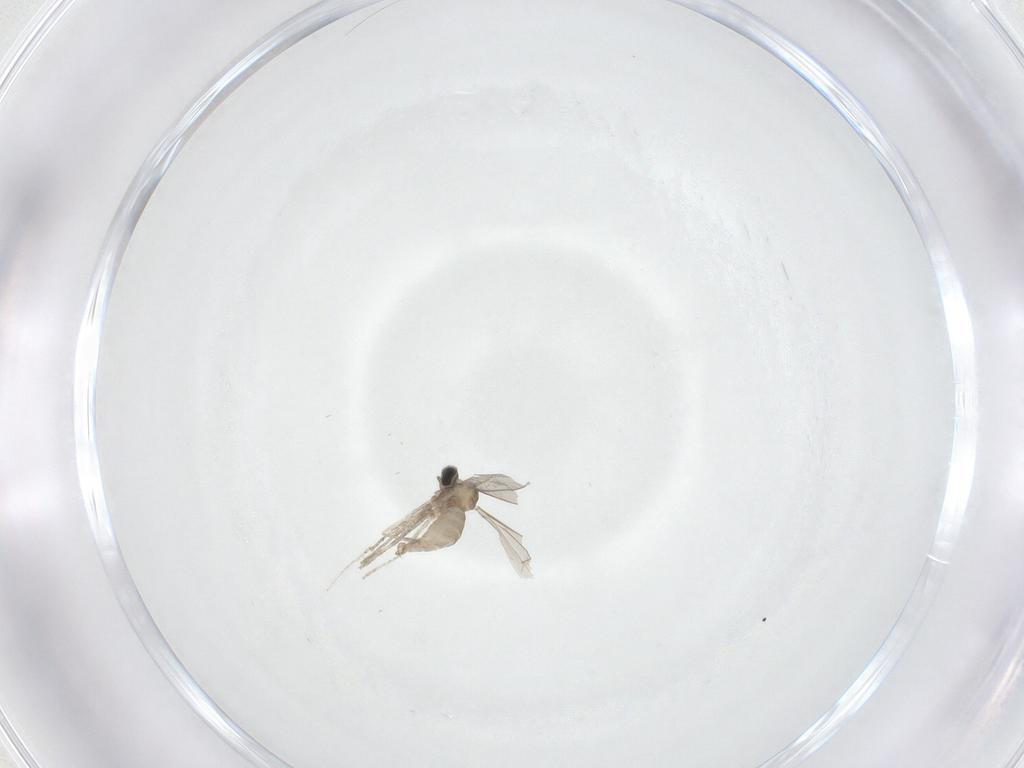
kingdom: Animalia
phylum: Arthropoda
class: Insecta
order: Diptera
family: Cecidomyiidae
